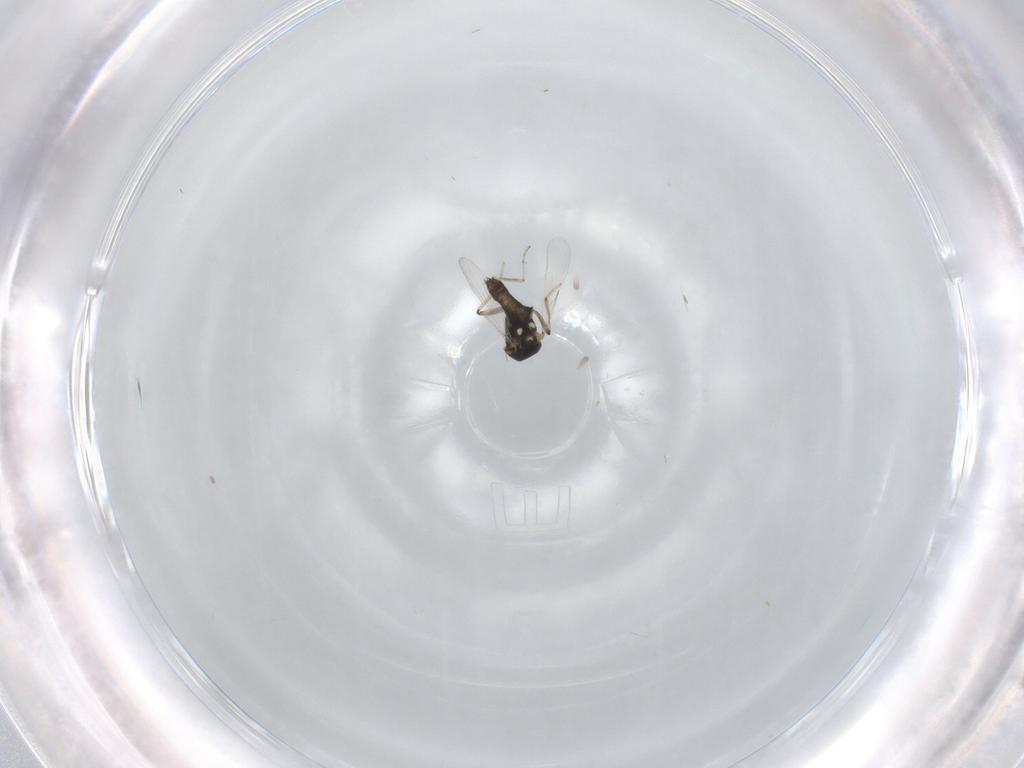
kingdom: Animalia
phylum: Arthropoda
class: Insecta
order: Diptera
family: Ceratopogonidae
